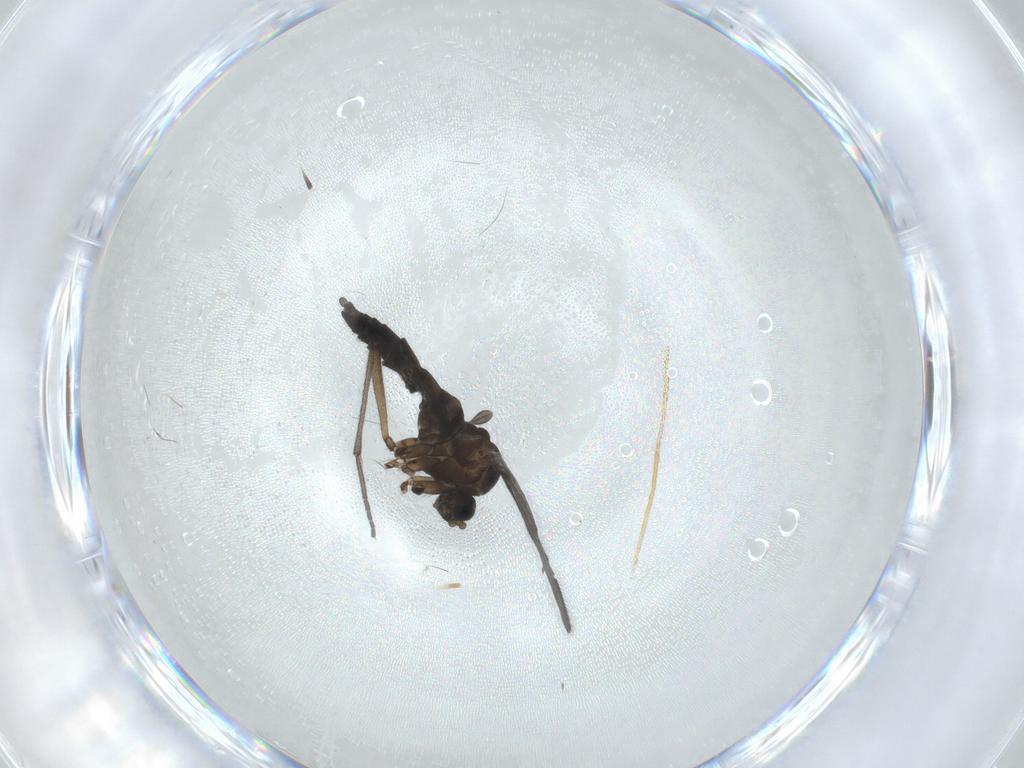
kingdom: Animalia
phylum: Arthropoda
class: Insecta
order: Diptera
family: Sciaridae
